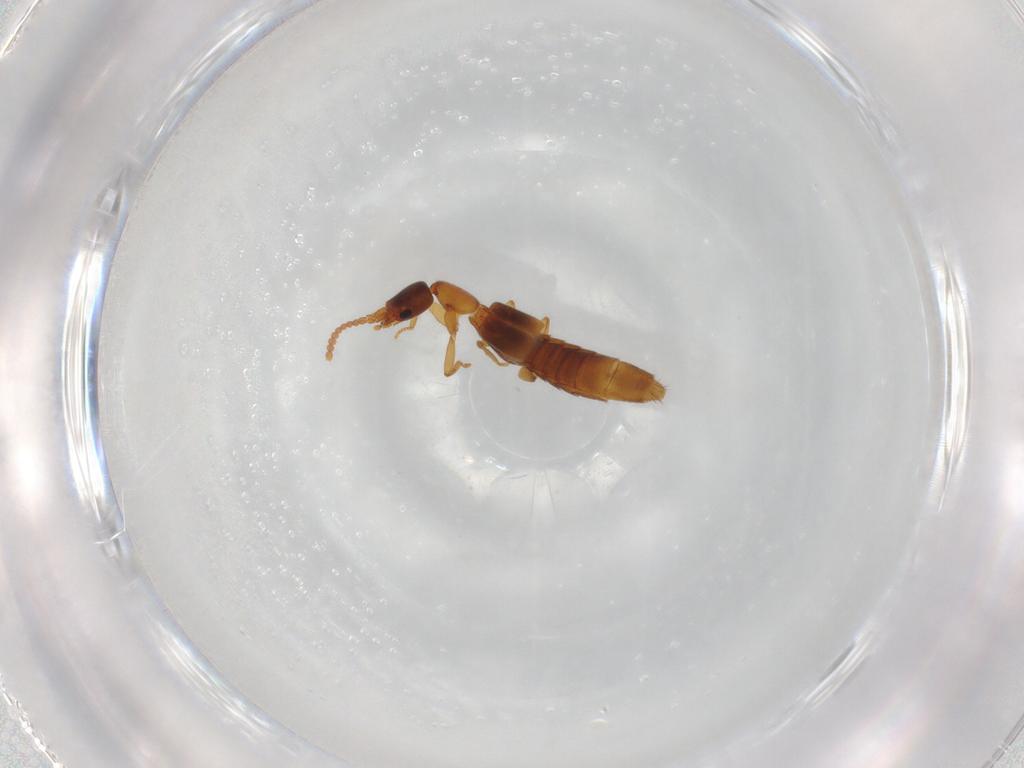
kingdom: Animalia
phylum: Arthropoda
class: Insecta
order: Coleoptera
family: Staphylinidae
